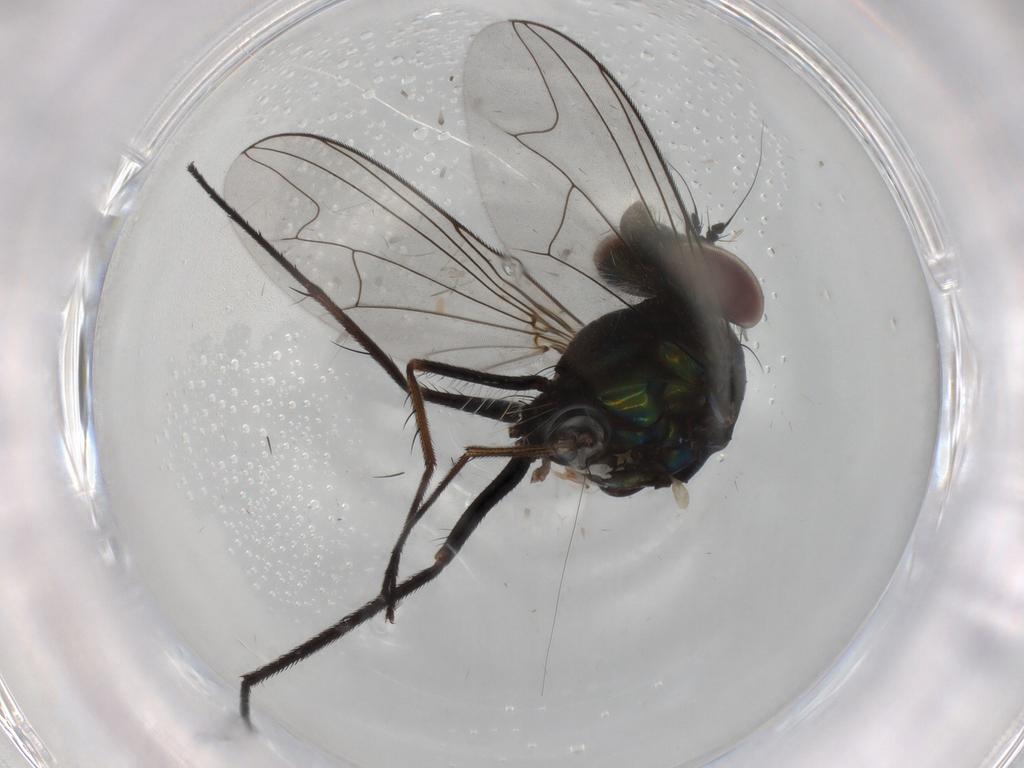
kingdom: Animalia
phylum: Arthropoda
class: Insecta
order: Diptera
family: Dolichopodidae
